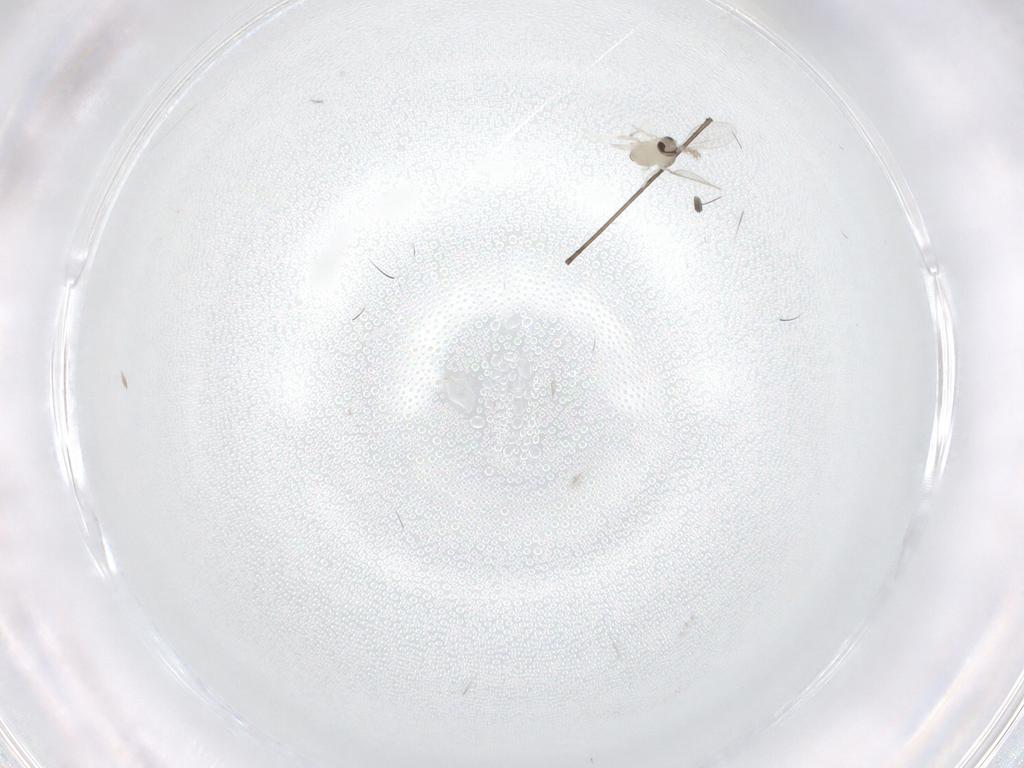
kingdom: Animalia
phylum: Arthropoda
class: Insecta
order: Diptera
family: Cecidomyiidae
